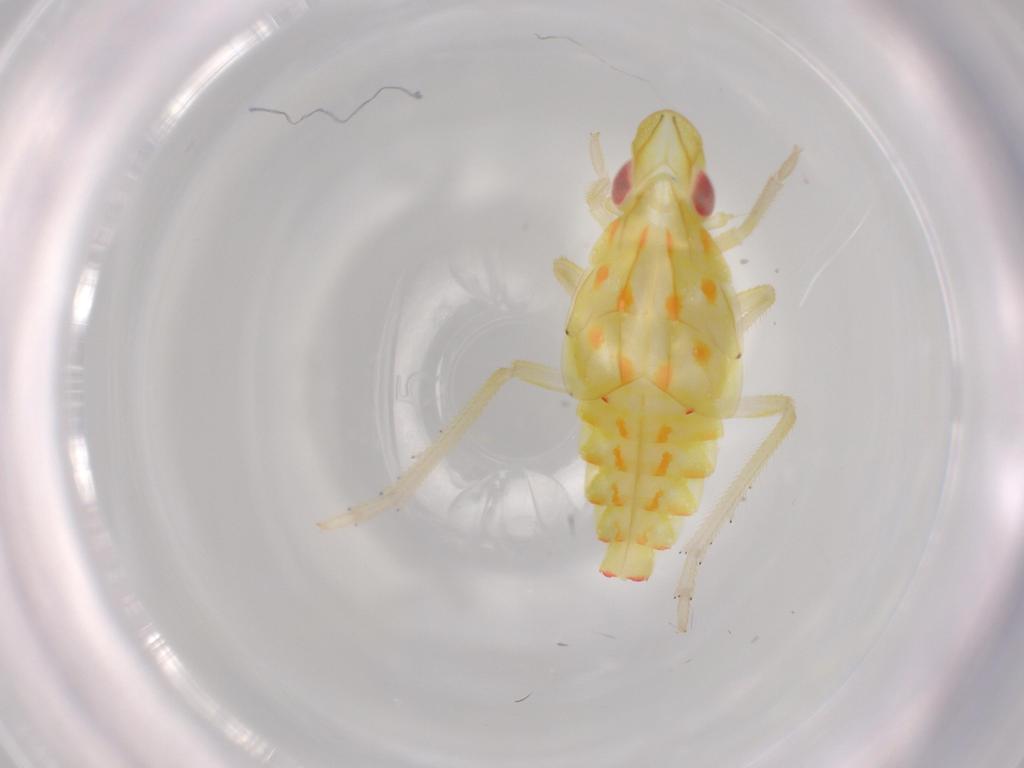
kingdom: Animalia
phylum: Arthropoda
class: Insecta
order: Hemiptera
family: Tropiduchidae
